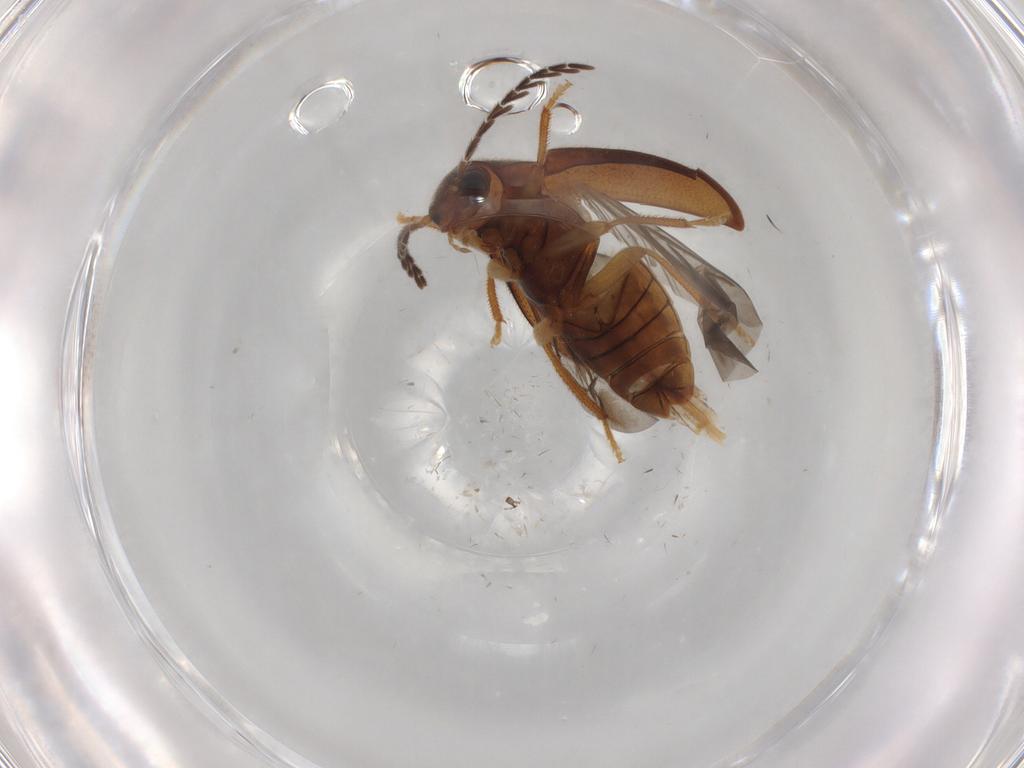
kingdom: Animalia
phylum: Arthropoda
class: Insecta
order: Coleoptera
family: Ptilodactylidae
